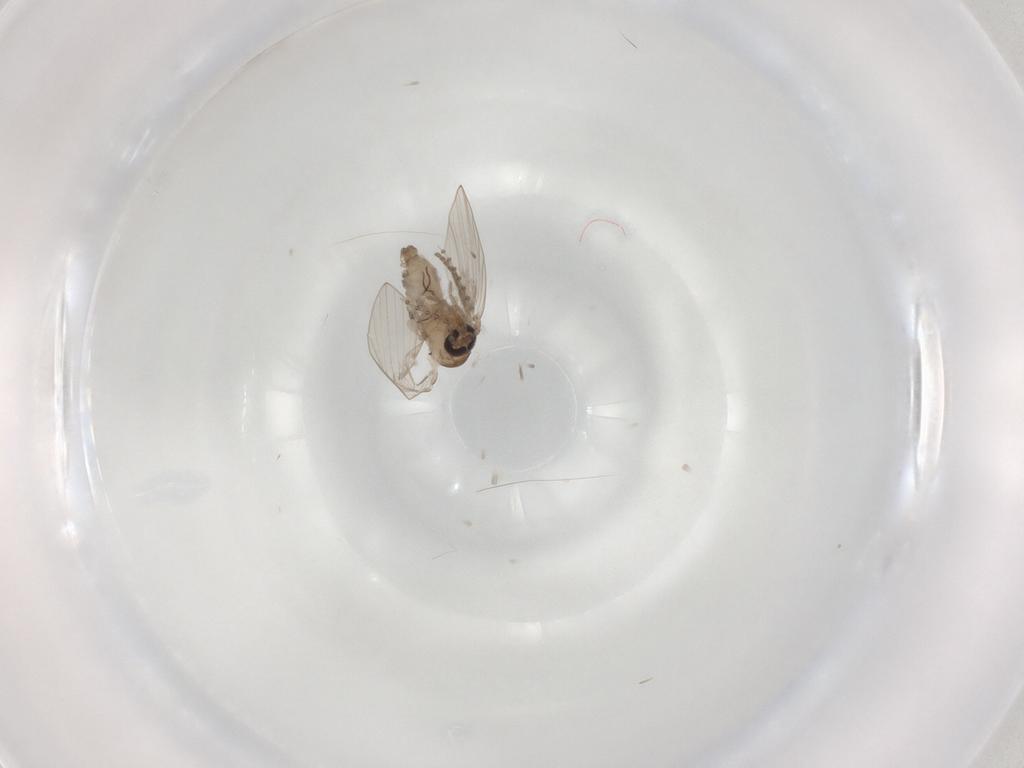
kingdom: Animalia
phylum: Arthropoda
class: Insecta
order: Diptera
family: Psychodidae
